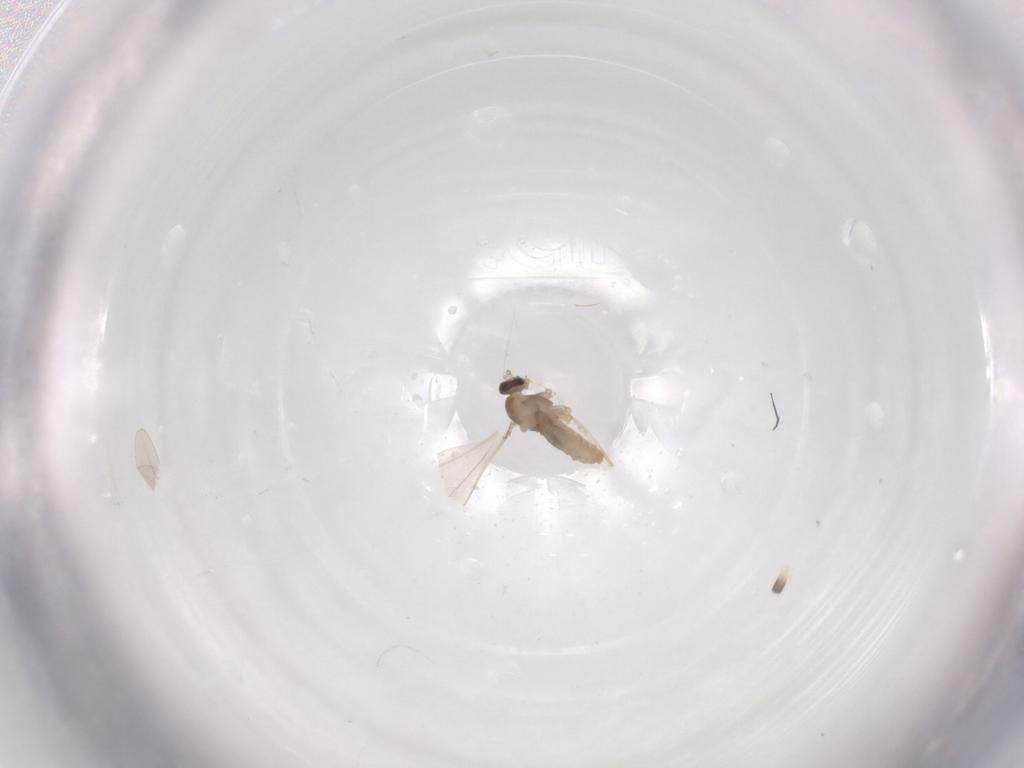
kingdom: Animalia
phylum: Arthropoda
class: Insecta
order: Diptera
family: Cecidomyiidae
